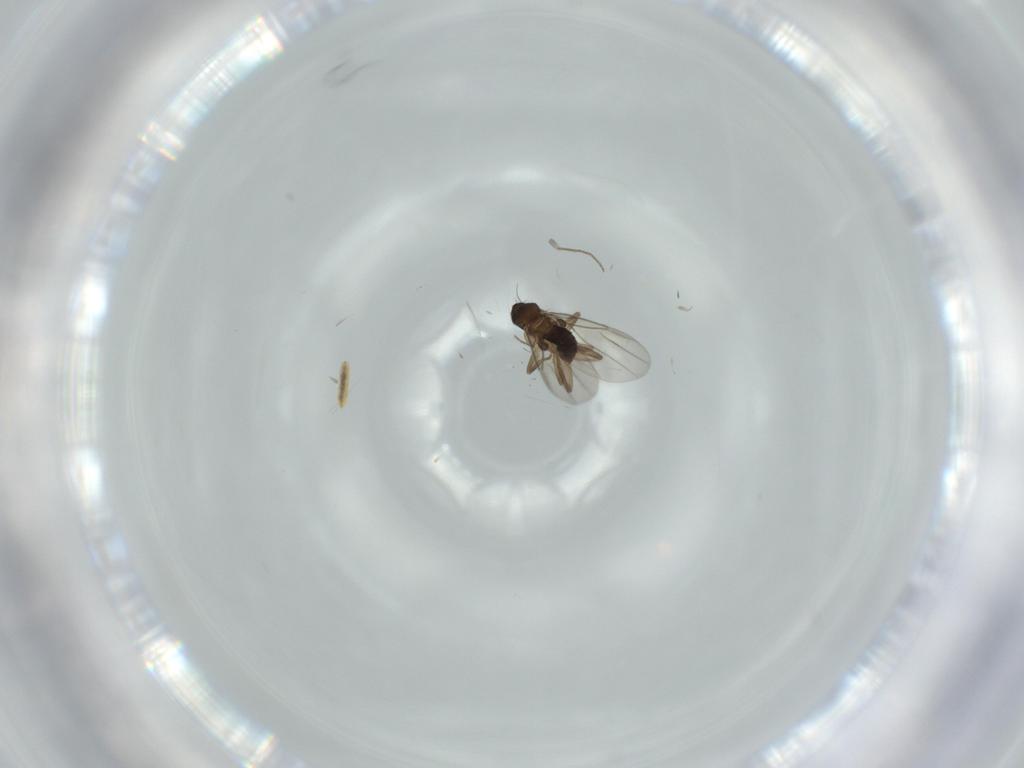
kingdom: Animalia
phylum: Arthropoda
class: Insecta
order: Diptera
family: Phoridae
